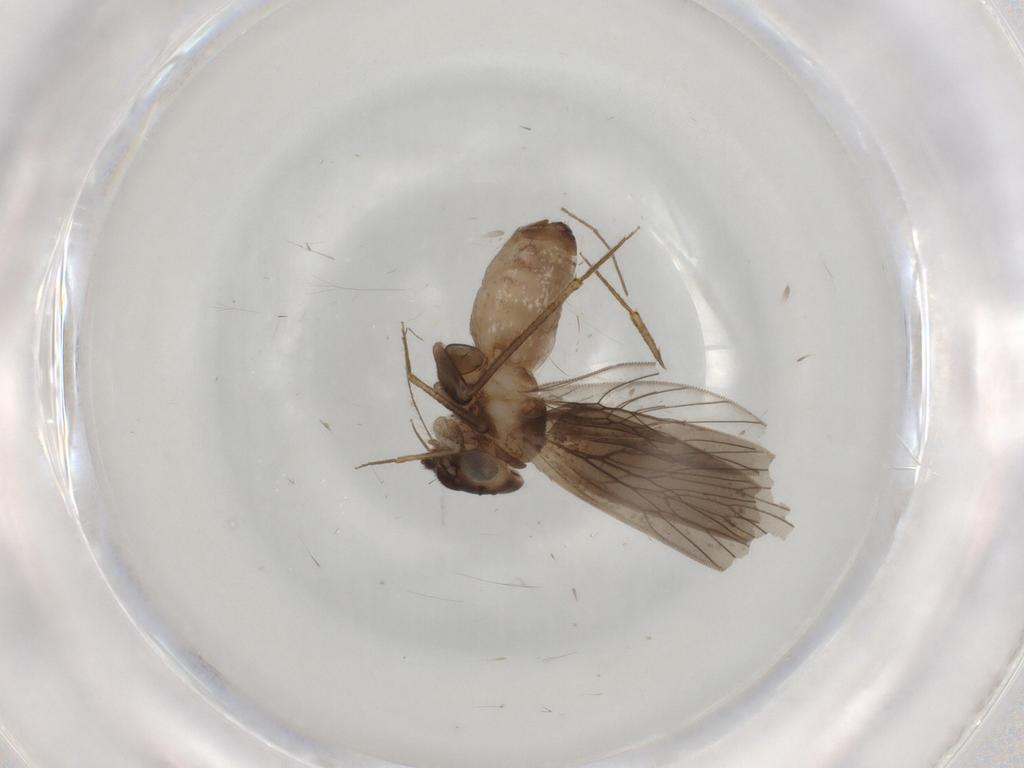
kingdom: Animalia
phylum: Arthropoda
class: Insecta
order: Psocodea
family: Lepidopsocidae
